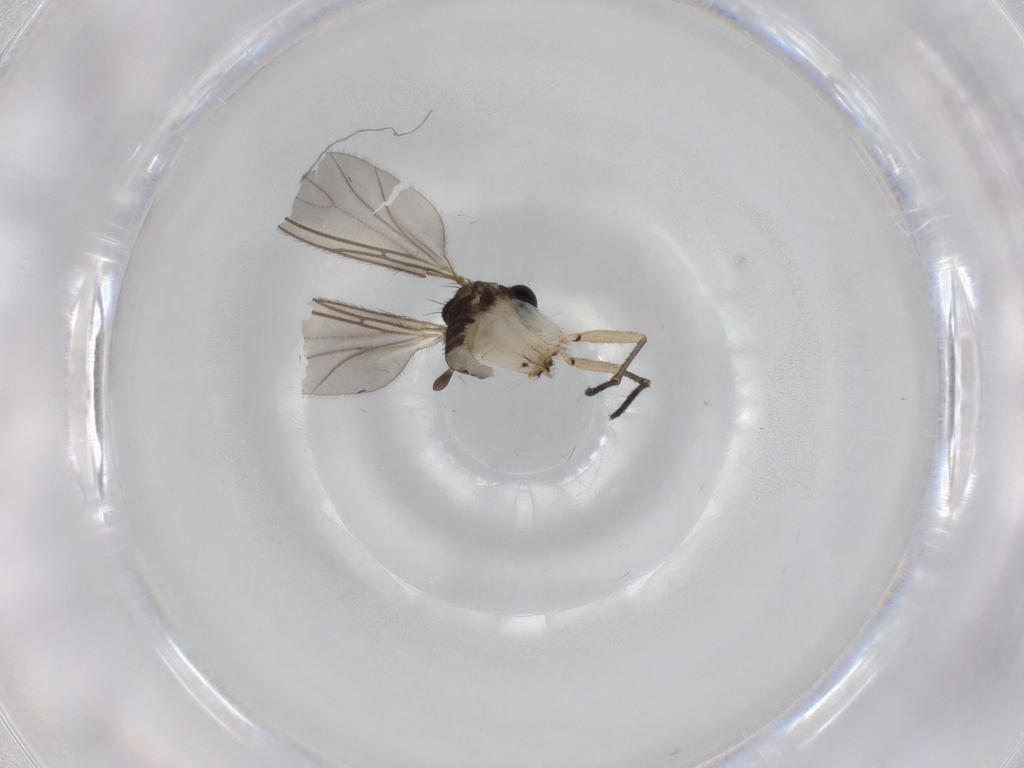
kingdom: Animalia
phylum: Arthropoda
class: Insecta
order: Diptera
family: Sciaridae
